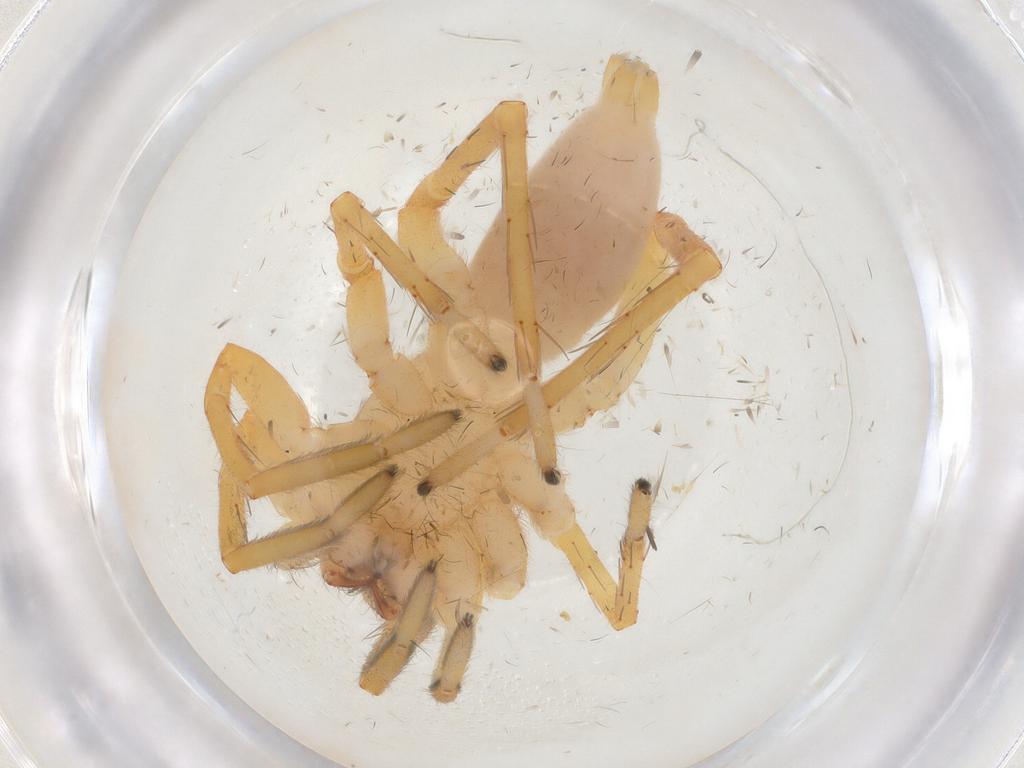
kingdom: Animalia
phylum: Arthropoda
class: Arachnida
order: Araneae
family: Clubionidae
